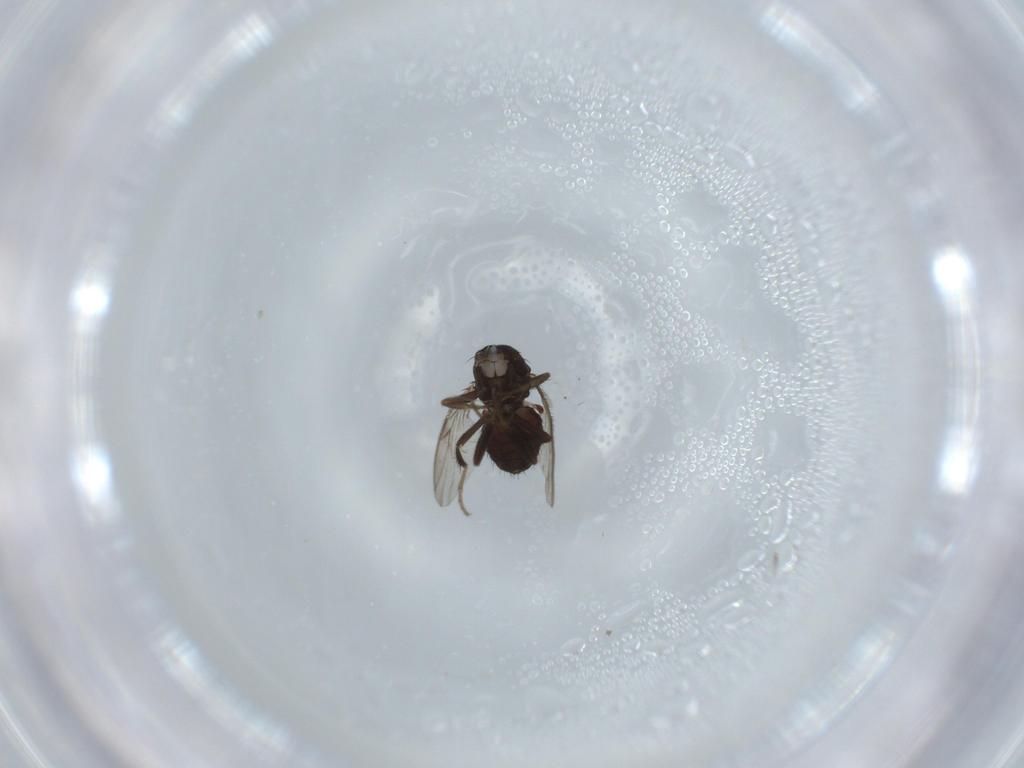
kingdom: Animalia
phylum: Arthropoda
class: Insecta
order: Diptera
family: Sphaeroceridae
